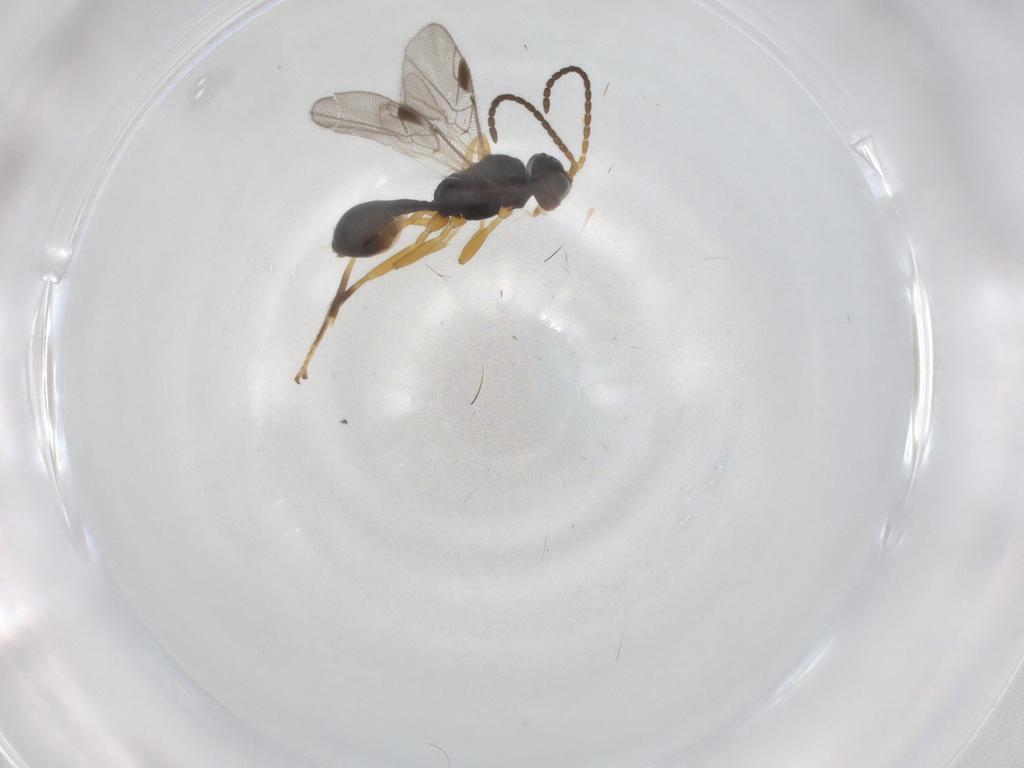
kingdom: Animalia
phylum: Arthropoda
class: Insecta
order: Hymenoptera
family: Braconidae
